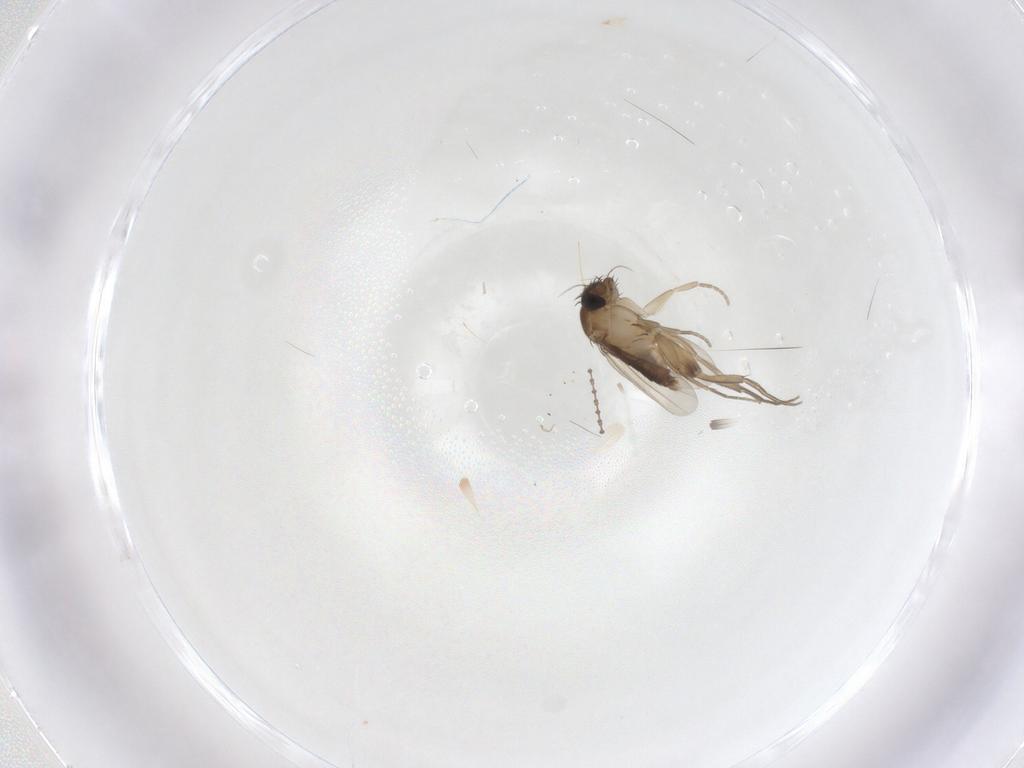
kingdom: Animalia
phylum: Arthropoda
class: Insecta
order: Diptera
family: Phoridae
